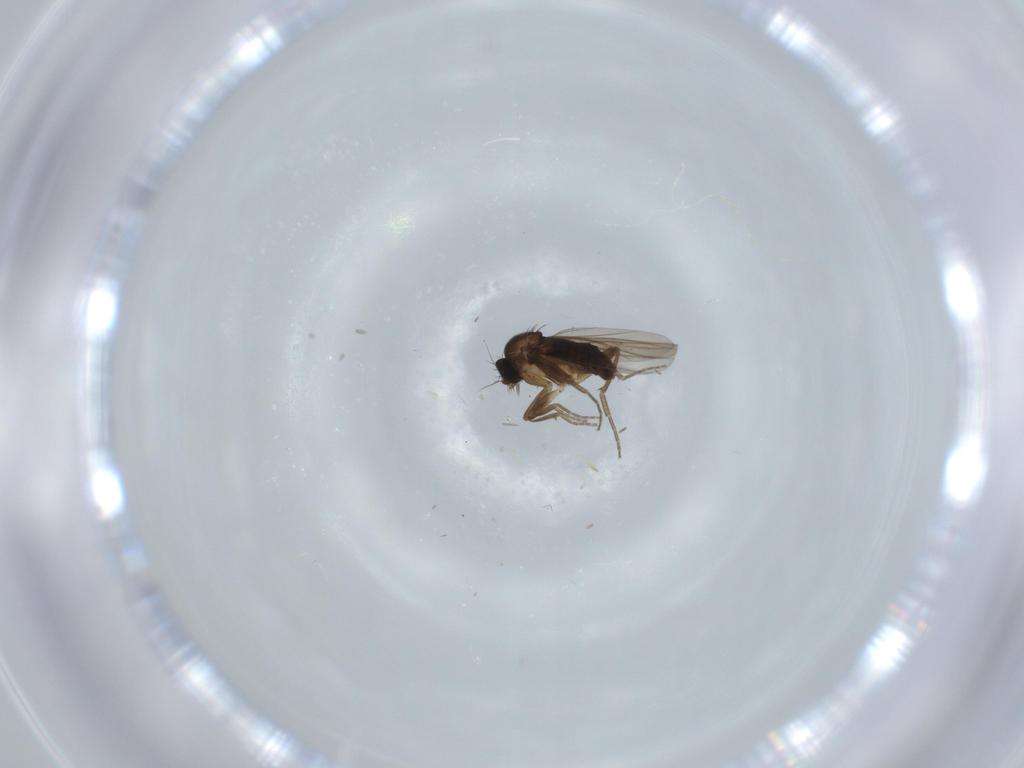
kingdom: Animalia
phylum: Arthropoda
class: Insecta
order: Diptera
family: Phoridae
